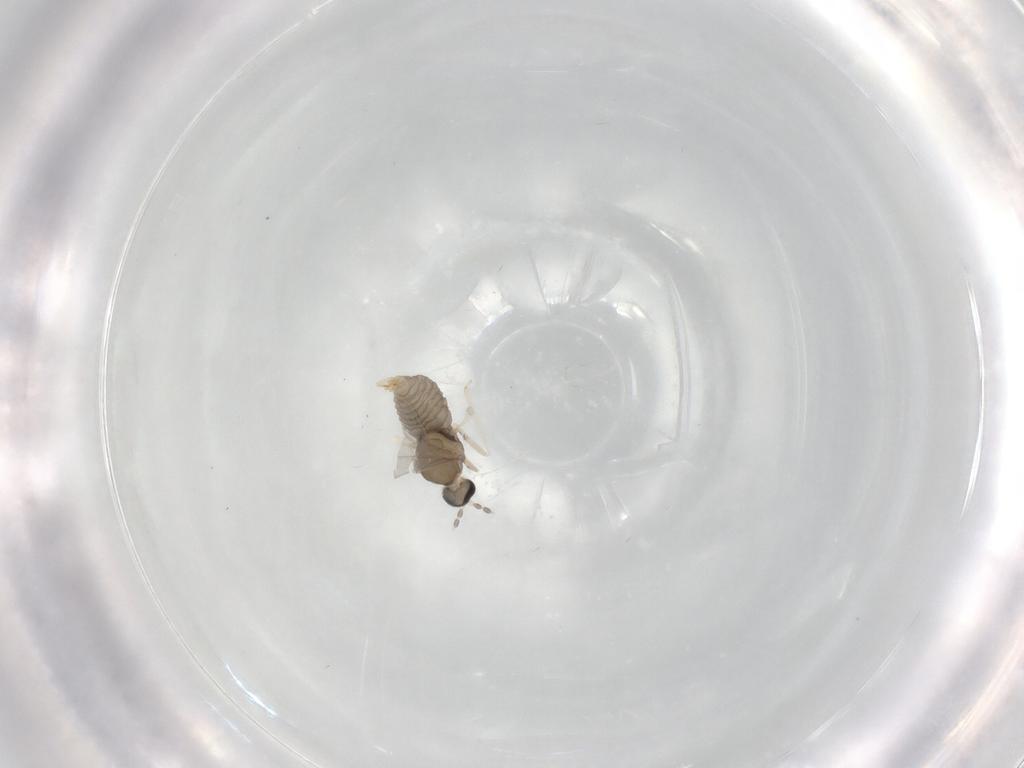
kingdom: Animalia
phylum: Arthropoda
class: Insecta
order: Diptera
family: Cecidomyiidae
